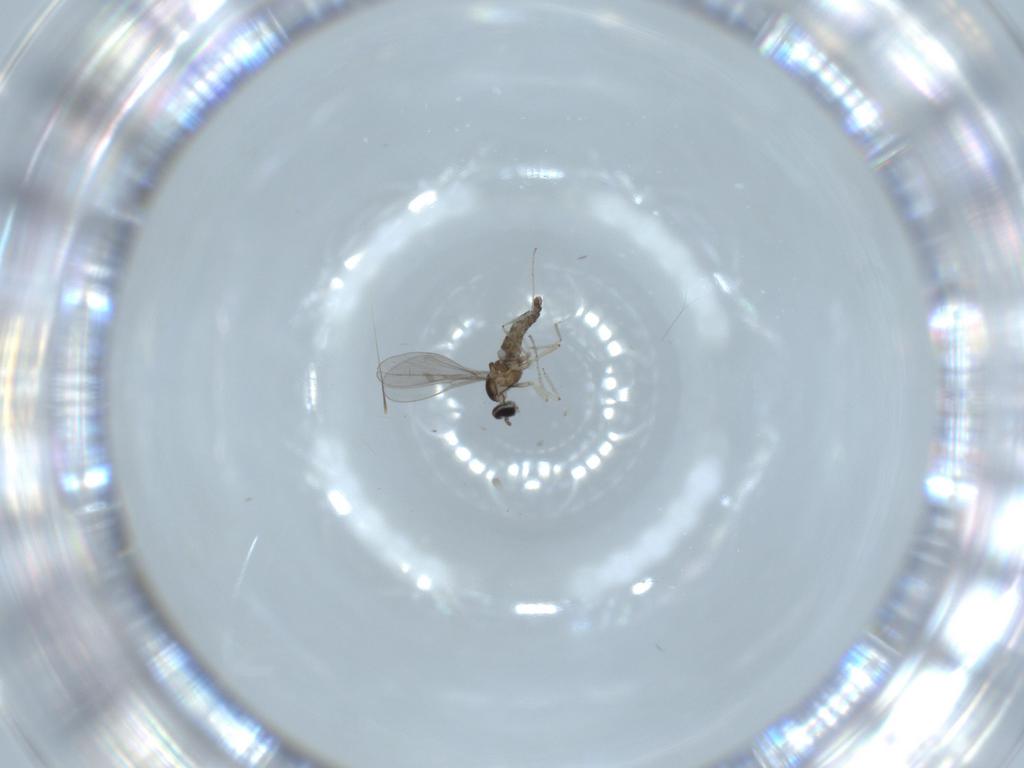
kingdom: Animalia
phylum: Arthropoda
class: Insecta
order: Diptera
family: Cecidomyiidae
